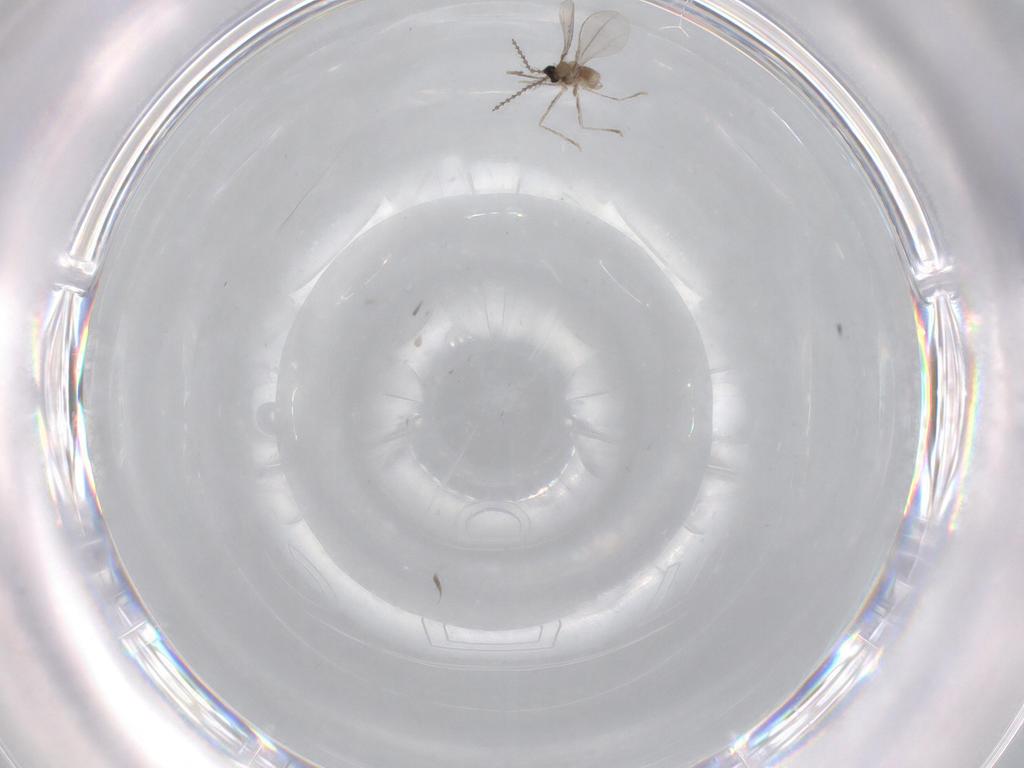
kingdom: Animalia
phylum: Arthropoda
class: Insecta
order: Diptera
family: Cecidomyiidae
